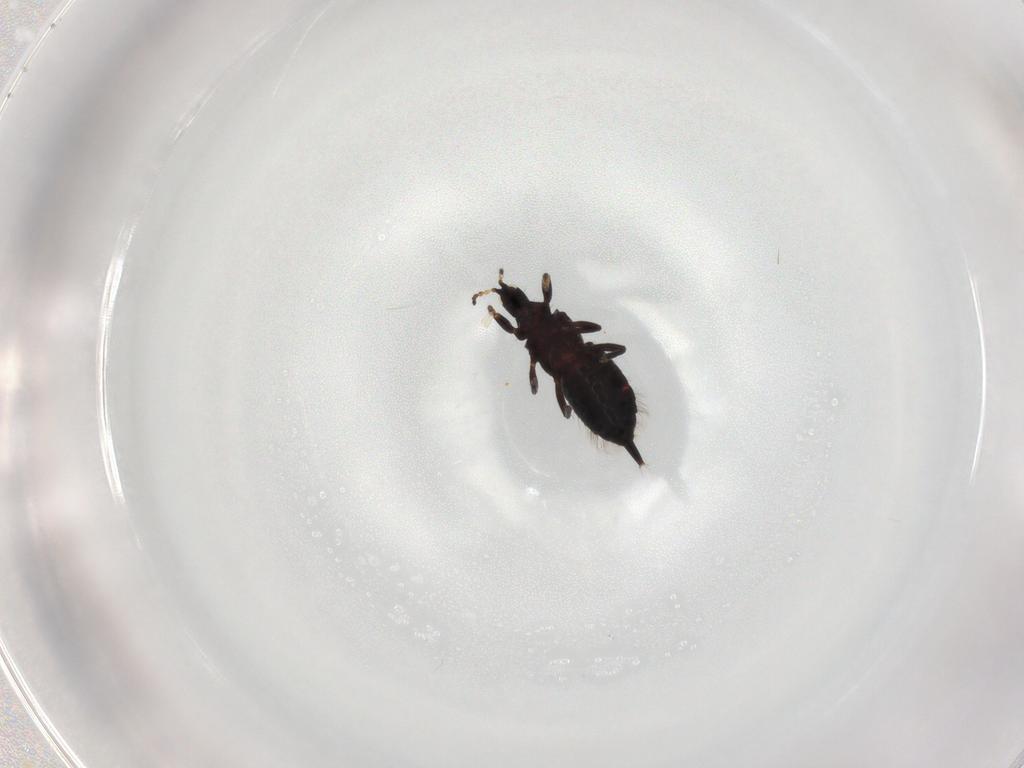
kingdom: Animalia
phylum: Arthropoda
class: Insecta
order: Thysanoptera
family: Phlaeothripidae
